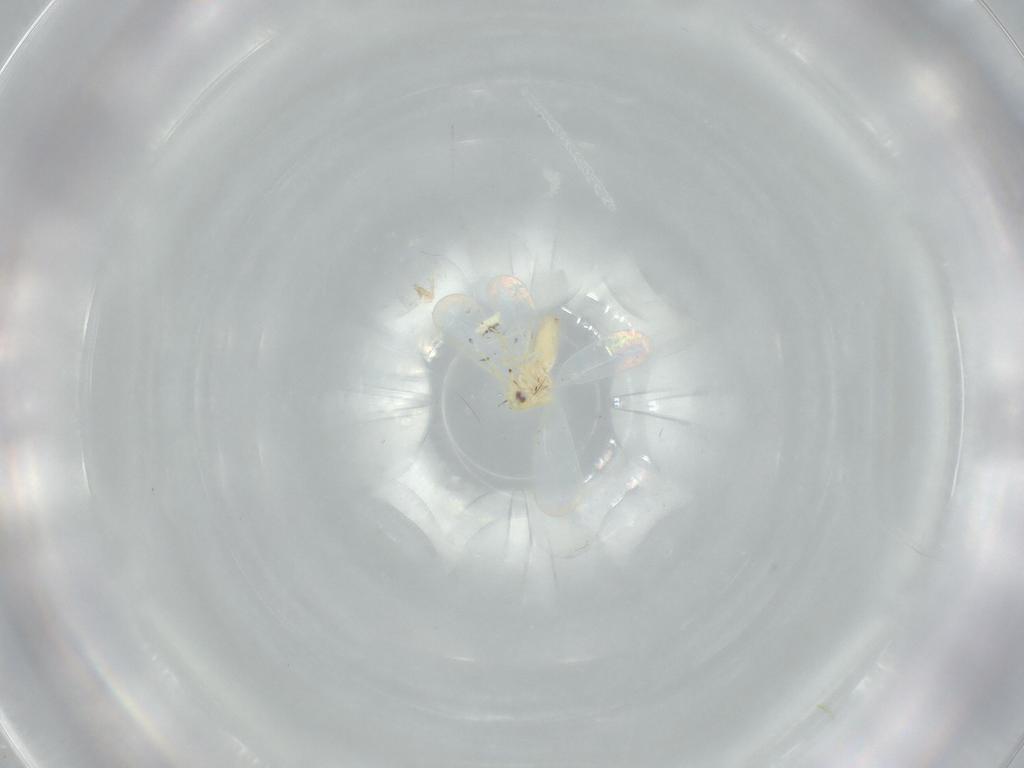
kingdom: Animalia
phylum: Arthropoda
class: Insecta
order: Hemiptera
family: Aleyrodidae
